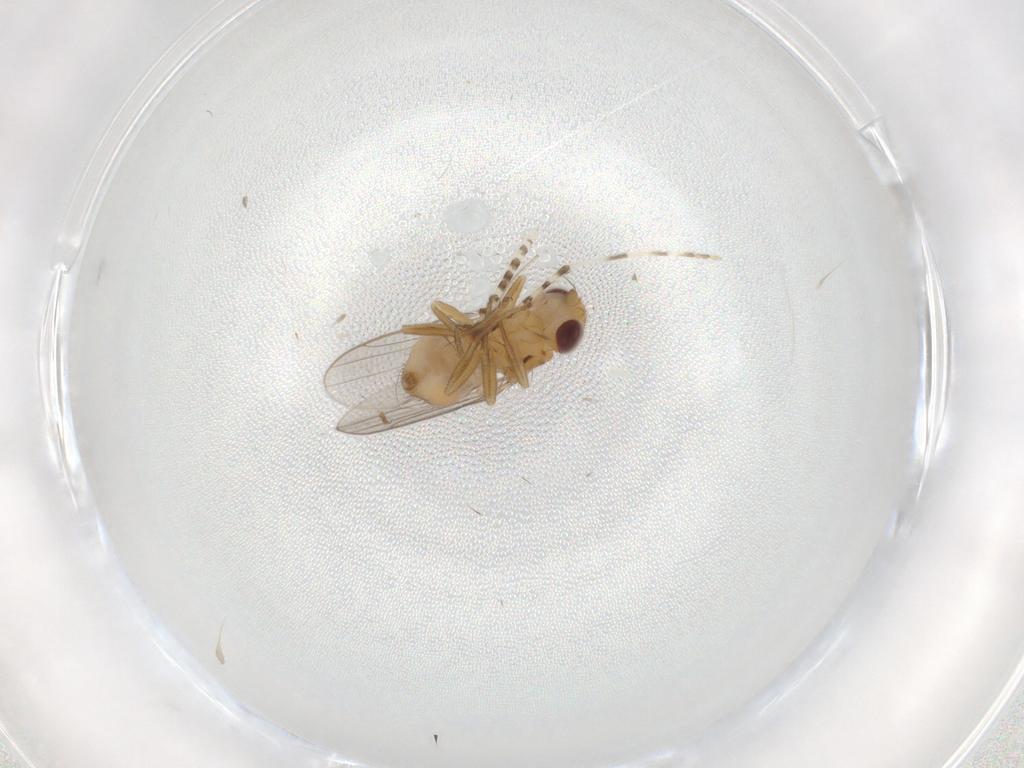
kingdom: Animalia
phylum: Arthropoda
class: Insecta
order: Diptera
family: Chloropidae
